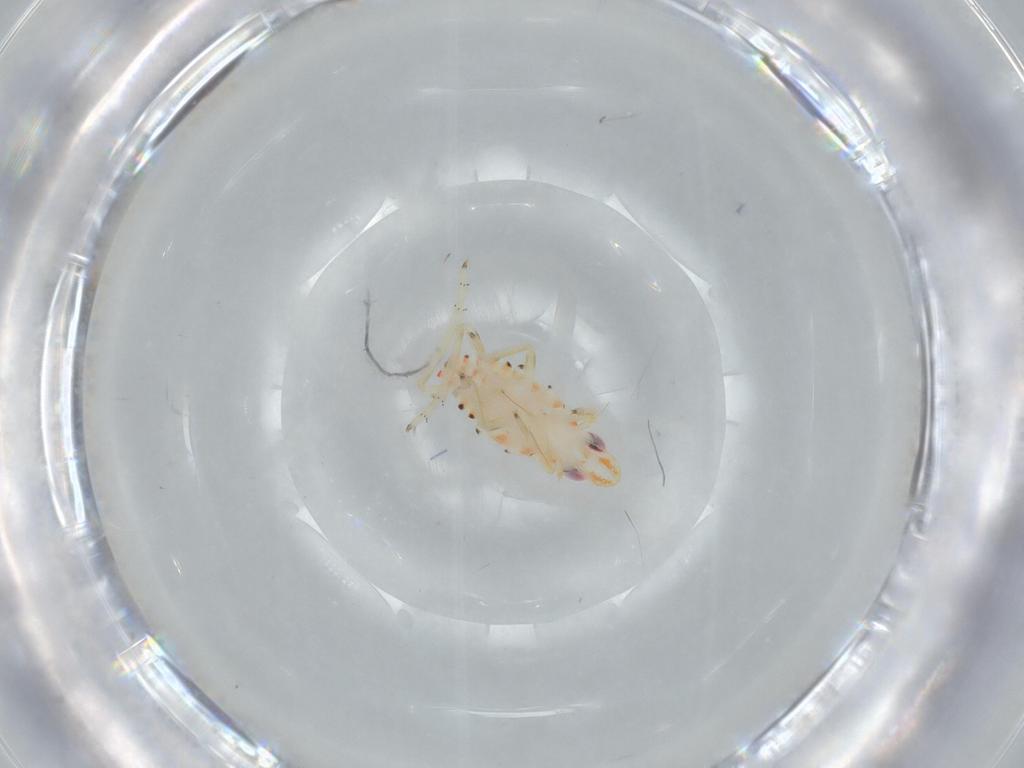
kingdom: Animalia
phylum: Arthropoda
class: Insecta
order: Hemiptera
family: Tropiduchidae
